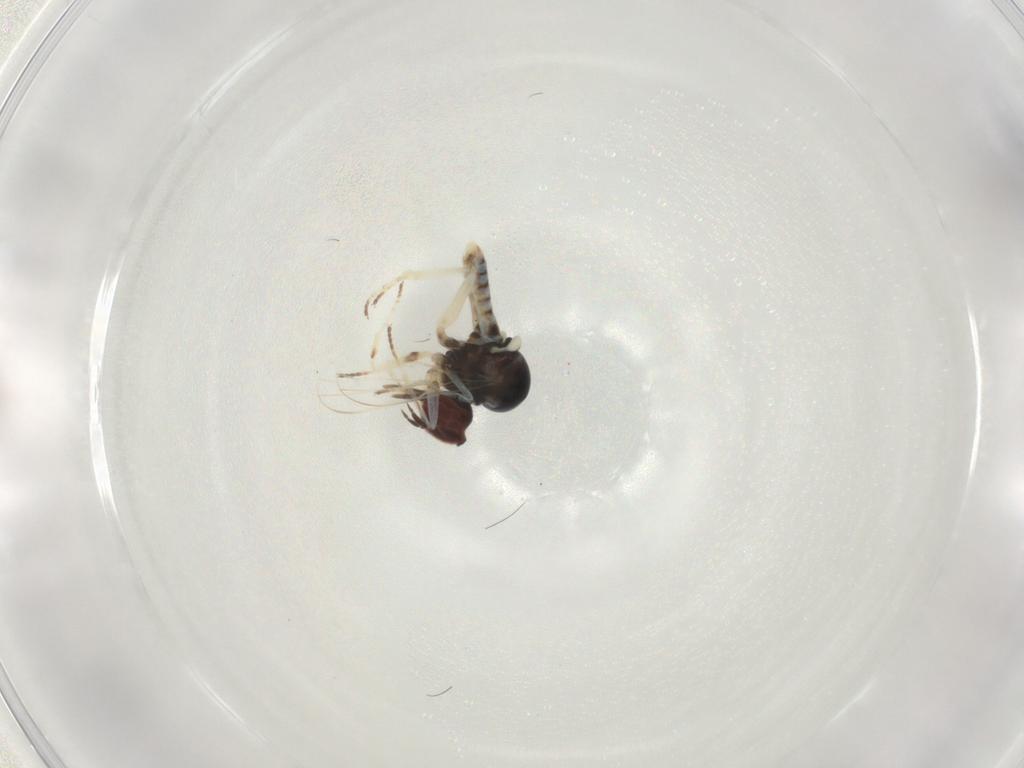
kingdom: Animalia
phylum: Arthropoda
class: Insecta
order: Diptera
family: Bombyliidae
